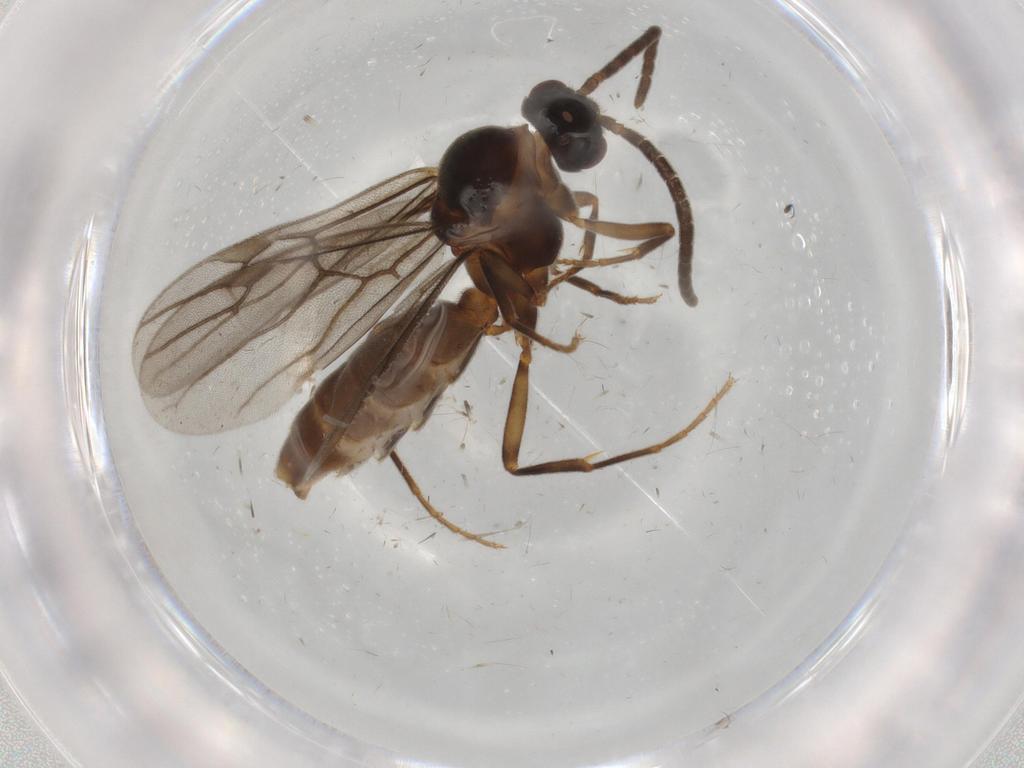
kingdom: Animalia
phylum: Arthropoda
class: Insecta
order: Hymenoptera
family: Formicidae
